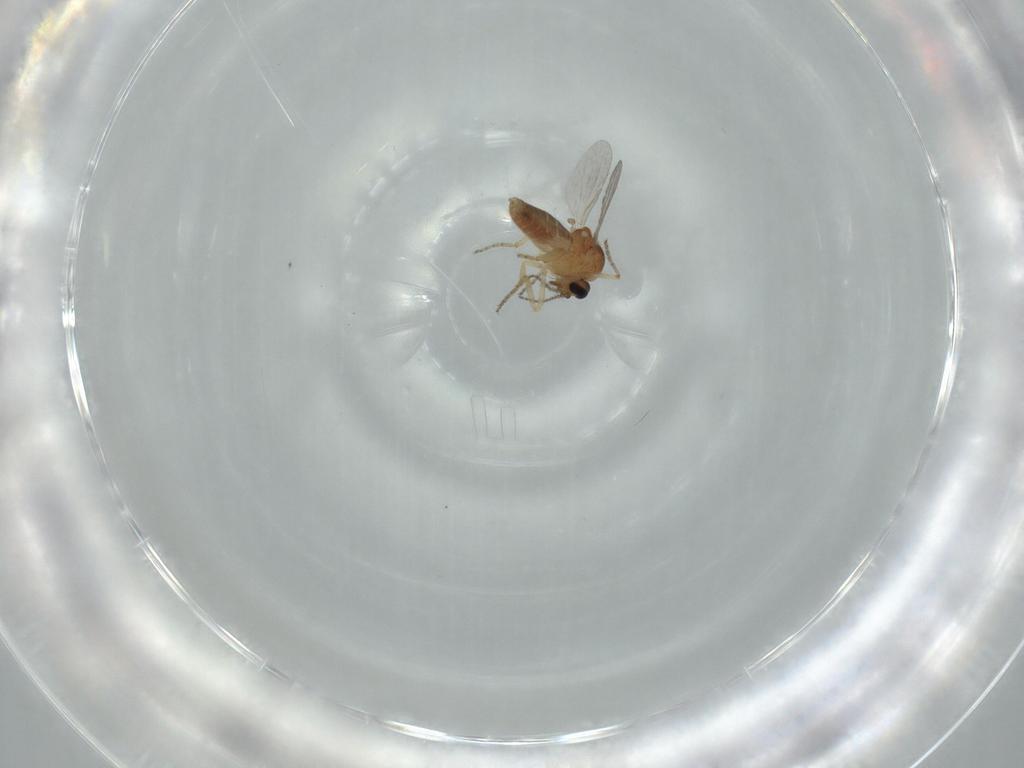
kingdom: Animalia
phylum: Arthropoda
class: Insecta
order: Diptera
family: Ceratopogonidae
